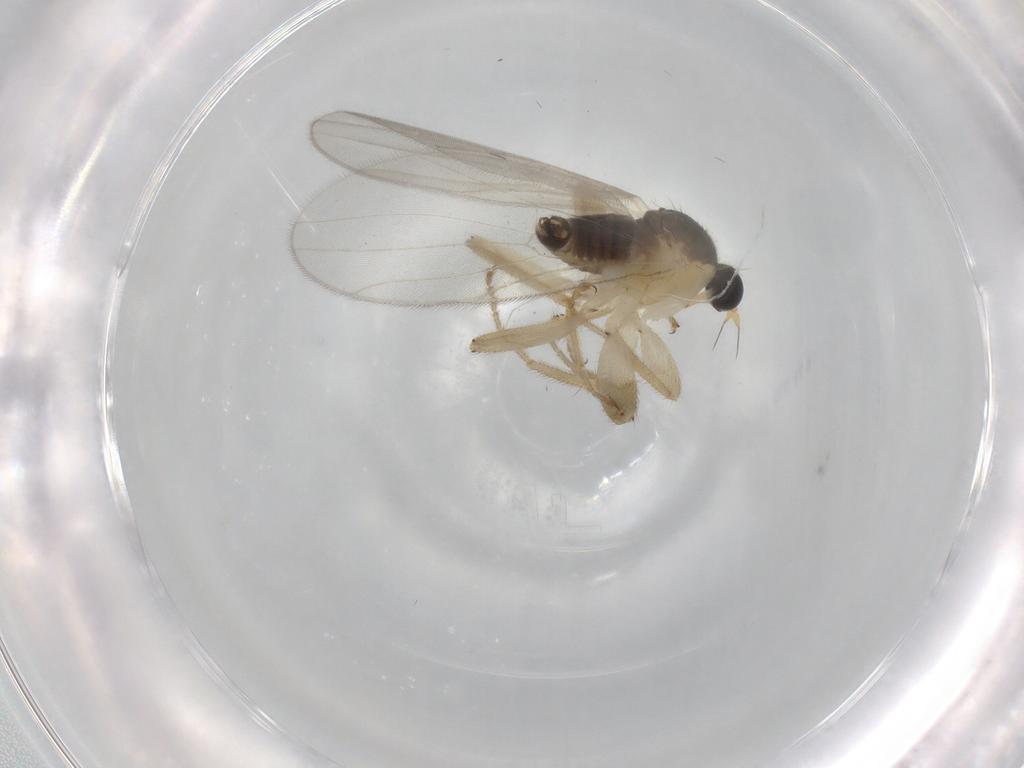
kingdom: Animalia
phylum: Arthropoda
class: Insecta
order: Diptera
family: Hybotidae
